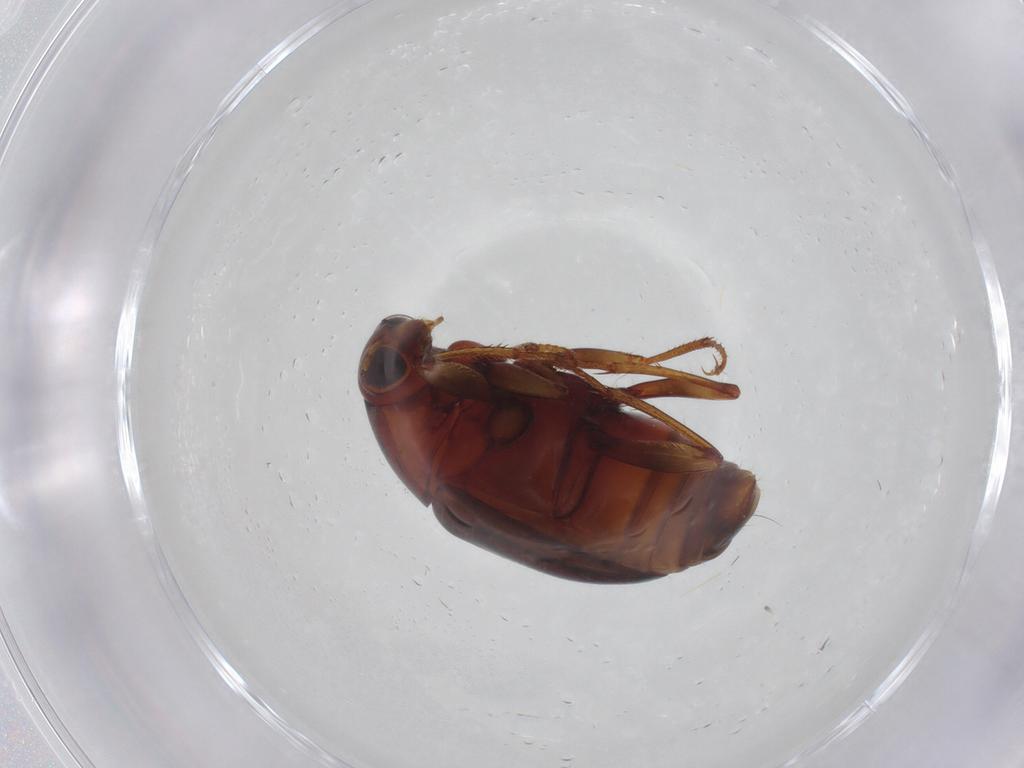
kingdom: Animalia
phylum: Arthropoda
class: Insecta
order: Coleoptera
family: Staphylinidae
